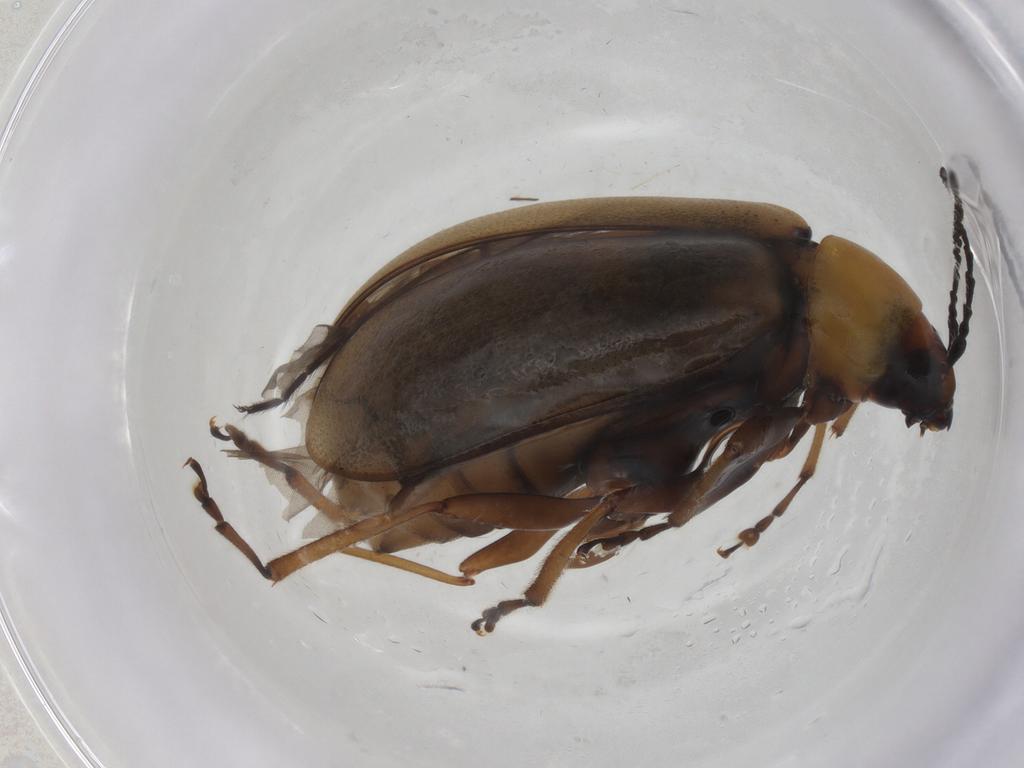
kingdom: Animalia
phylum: Arthropoda
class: Insecta
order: Coleoptera
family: Chrysomelidae
